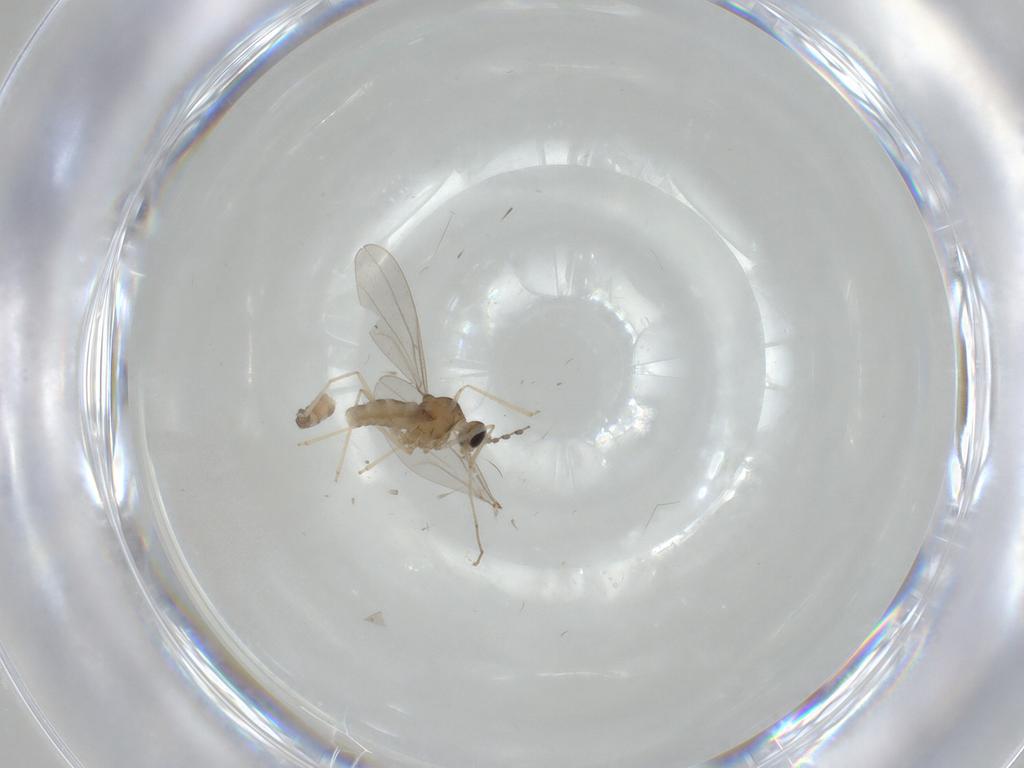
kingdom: Animalia
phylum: Arthropoda
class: Insecta
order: Diptera
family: Cecidomyiidae
